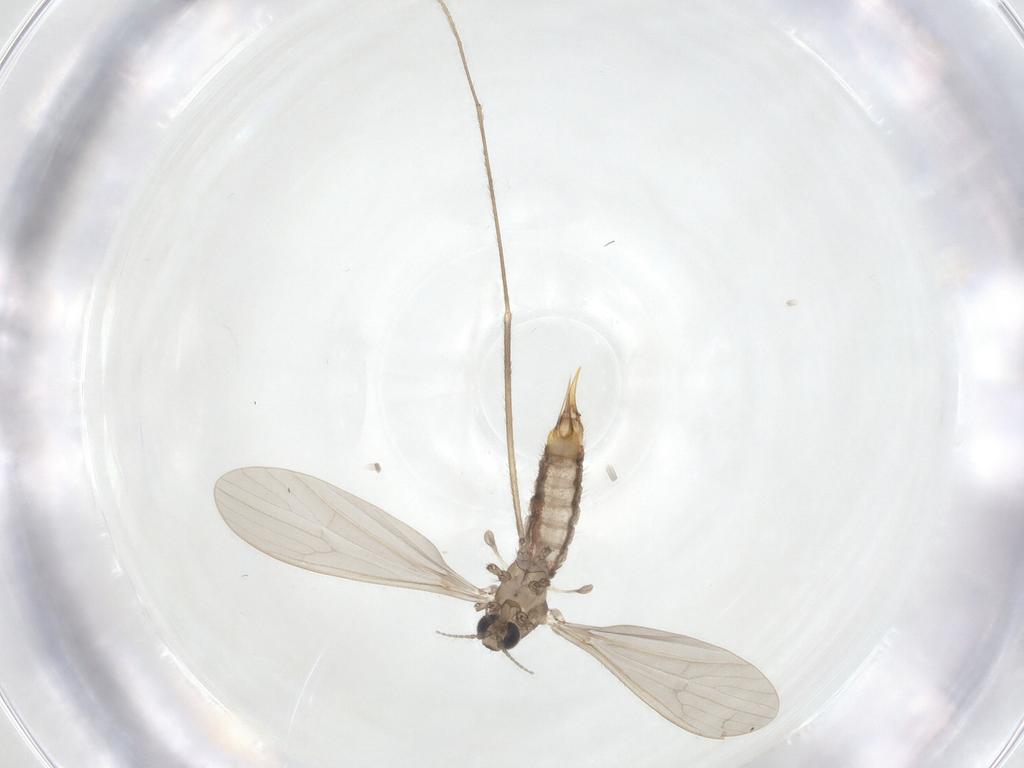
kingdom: Animalia
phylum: Arthropoda
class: Insecta
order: Diptera
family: Limoniidae
